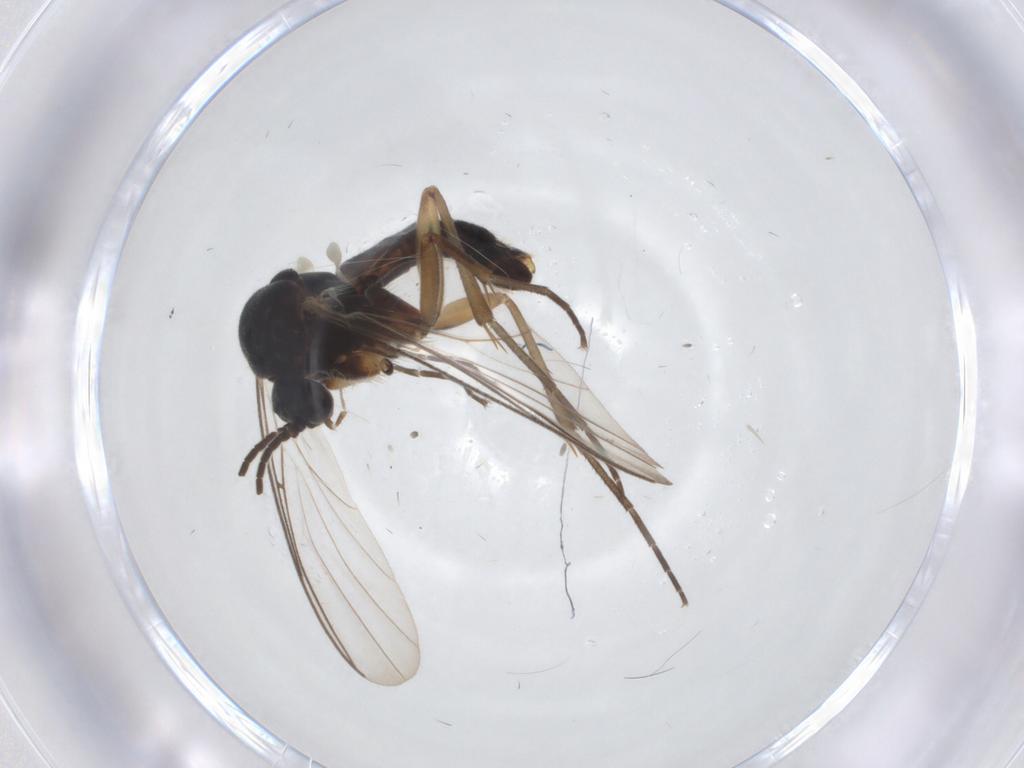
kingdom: Animalia
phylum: Arthropoda
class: Insecta
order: Diptera
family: Mycetophilidae
